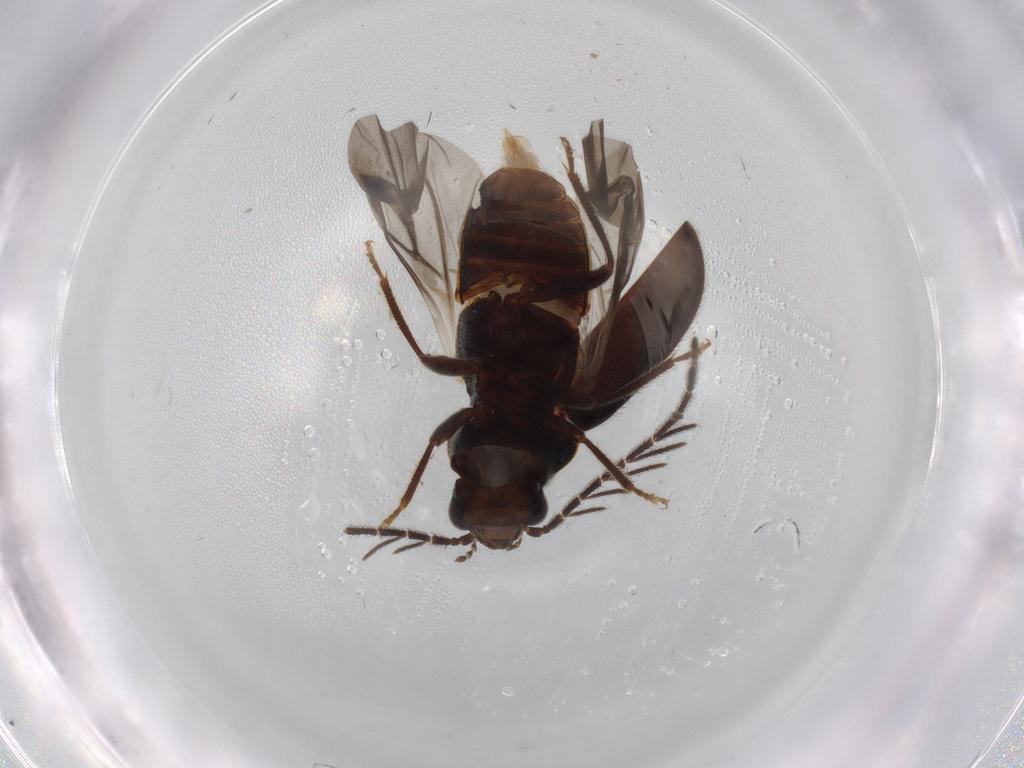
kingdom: Animalia
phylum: Arthropoda
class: Insecta
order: Coleoptera
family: Ptilodactylidae
